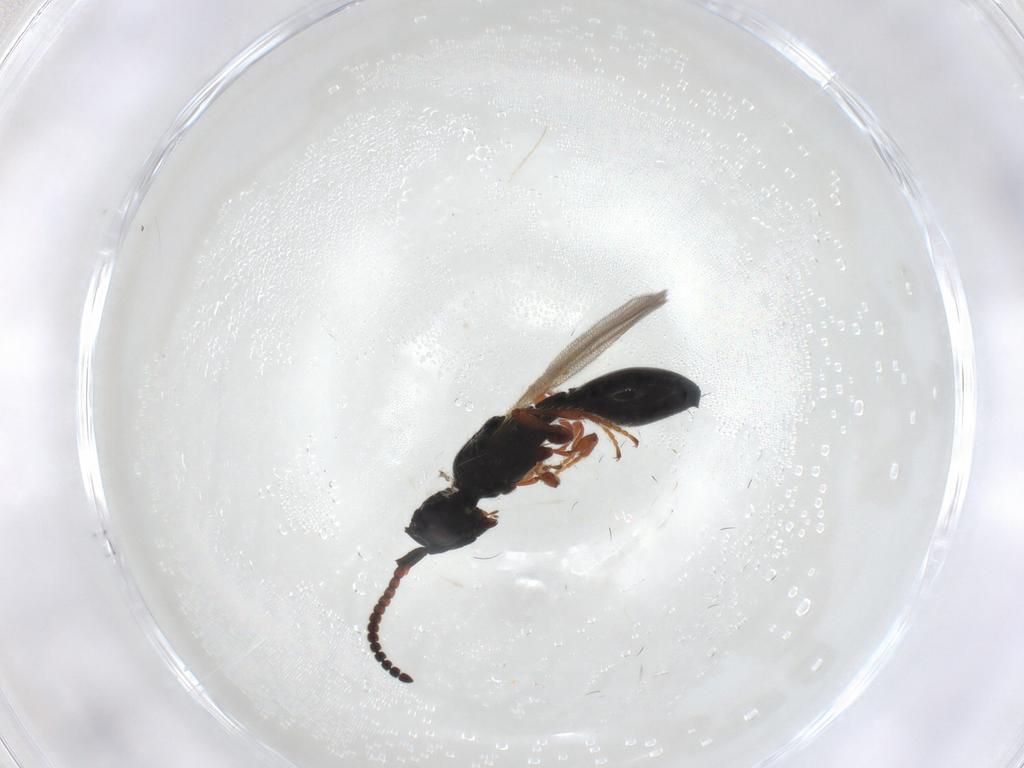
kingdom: Animalia
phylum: Arthropoda
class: Insecta
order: Hymenoptera
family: Diapriidae
